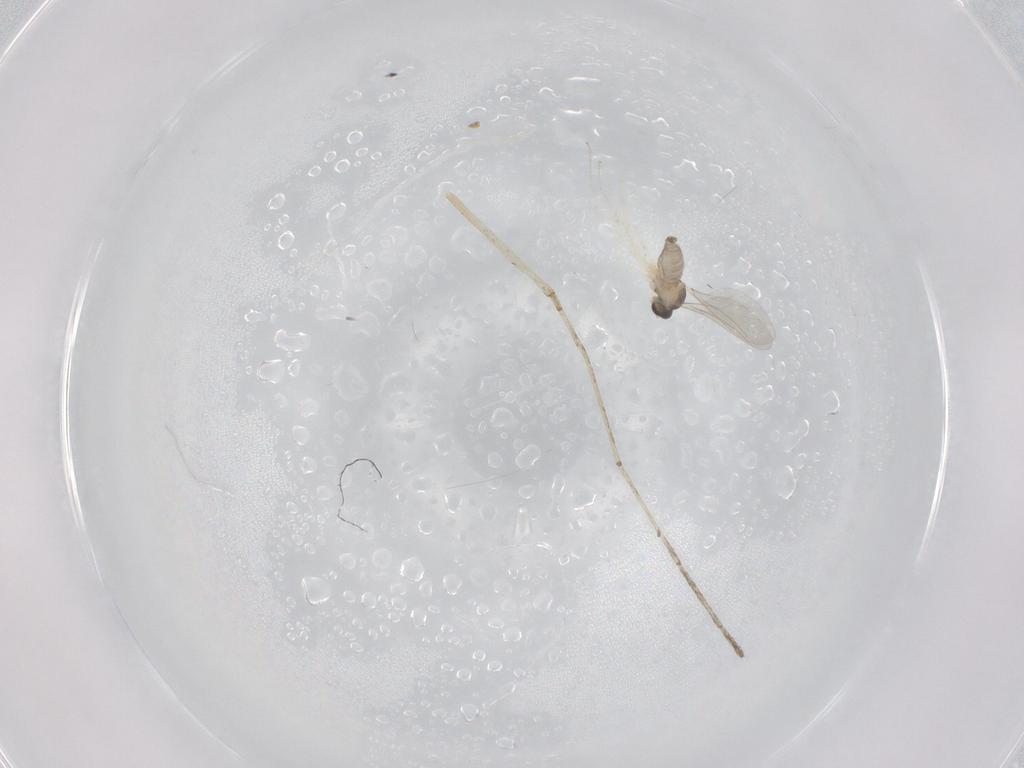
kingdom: Animalia
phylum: Arthropoda
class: Insecta
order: Diptera
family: Cecidomyiidae
